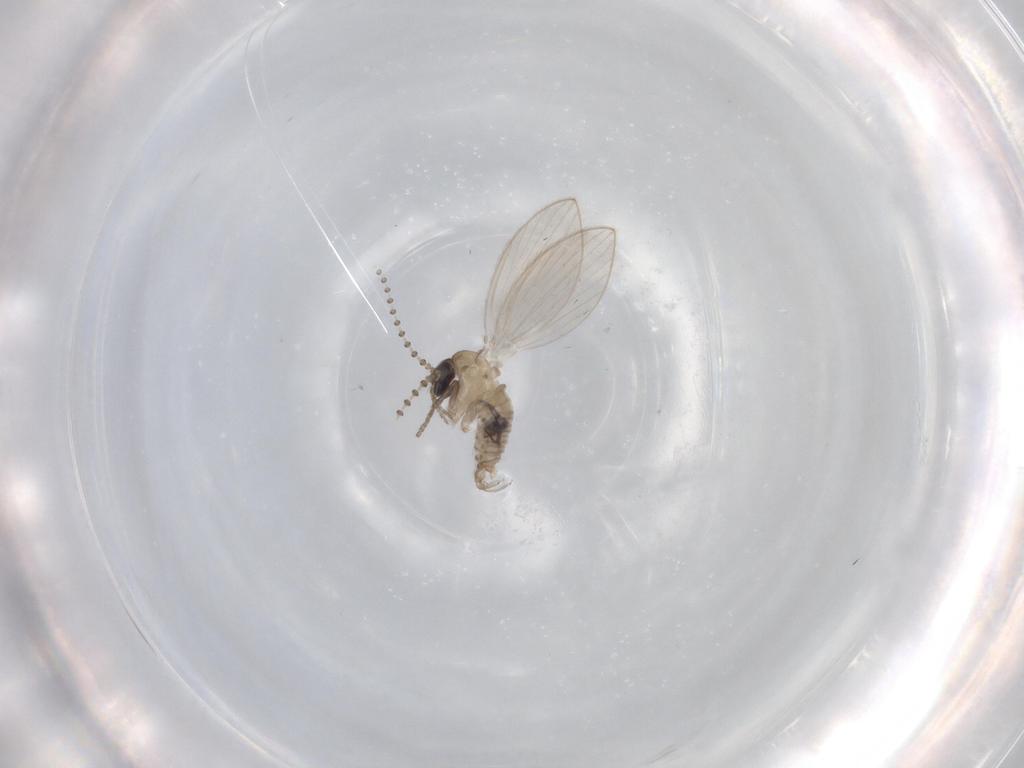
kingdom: Animalia
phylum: Arthropoda
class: Insecta
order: Diptera
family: Psychodidae
